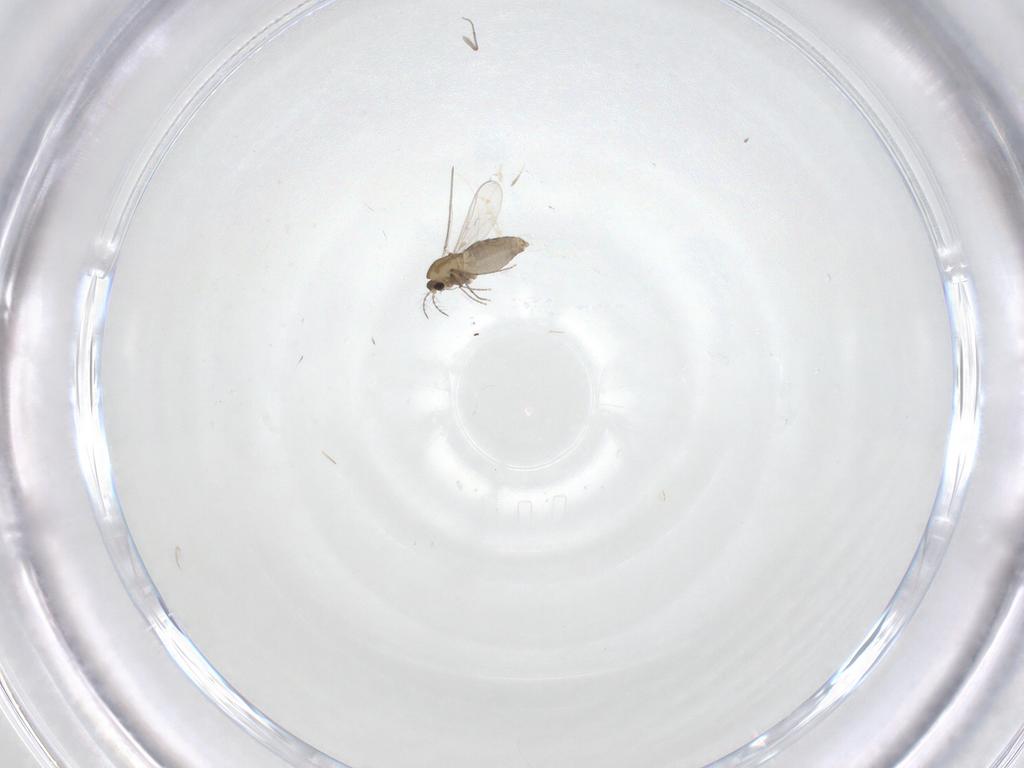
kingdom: Animalia
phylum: Arthropoda
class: Insecta
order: Diptera
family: Chironomidae
